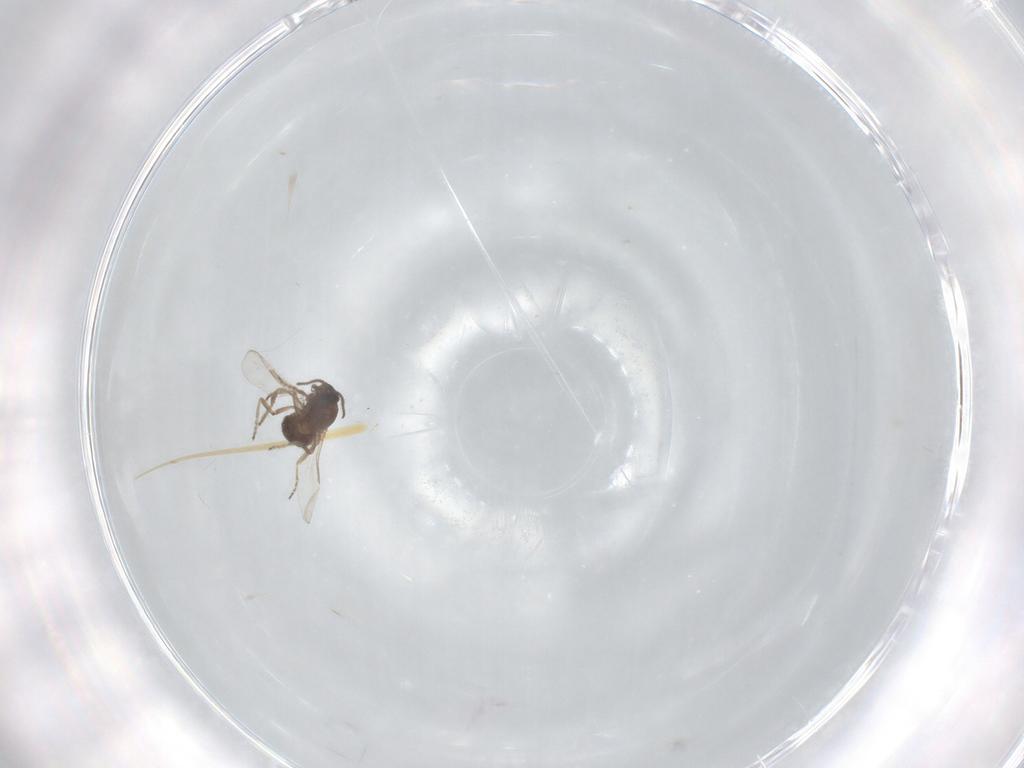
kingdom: Animalia
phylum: Arthropoda
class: Insecta
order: Diptera
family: Ceratopogonidae
